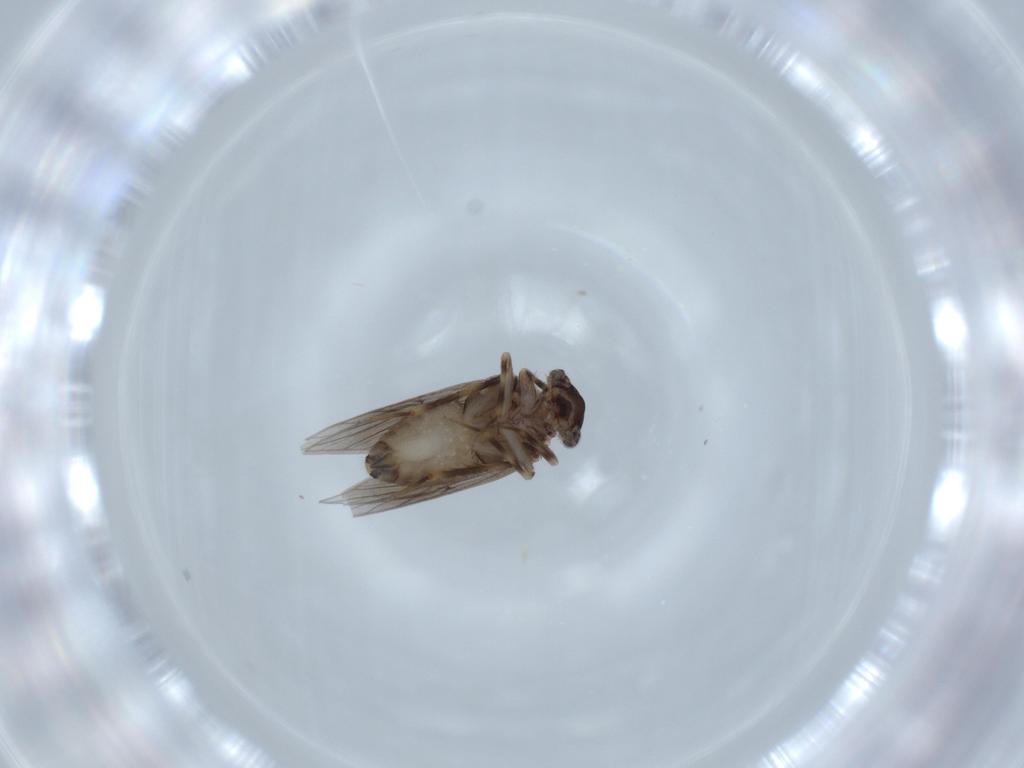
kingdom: Animalia
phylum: Arthropoda
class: Insecta
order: Psocodea
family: Lepidopsocidae
